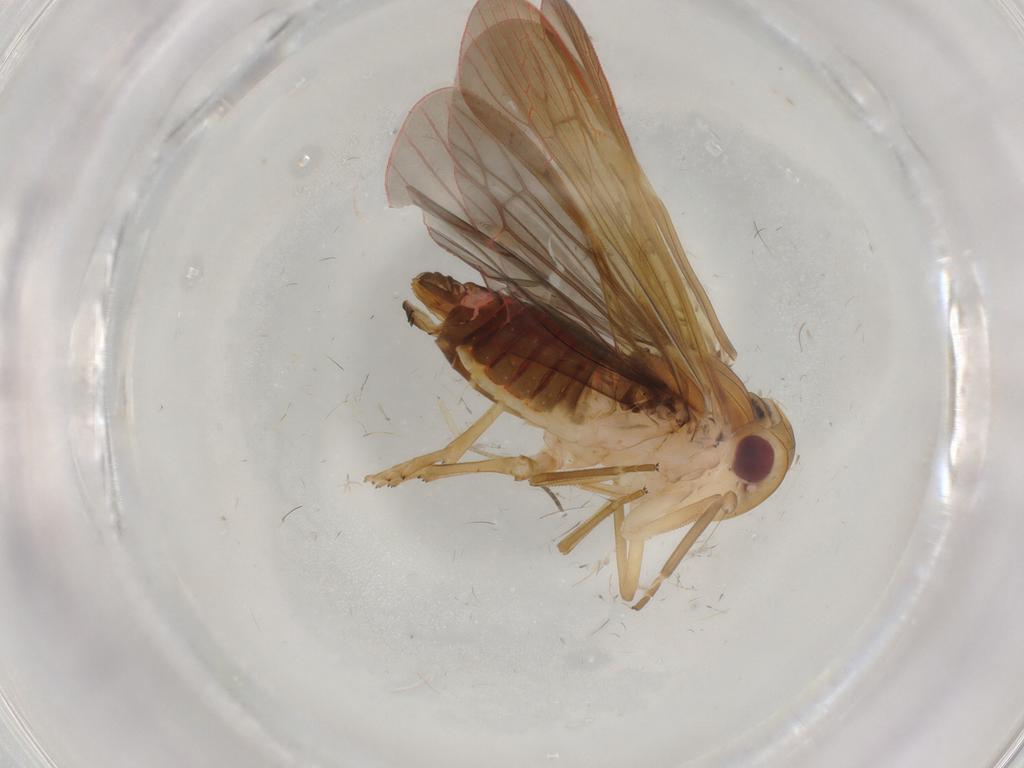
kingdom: Animalia
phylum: Arthropoda
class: Insecta
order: Hemiptera
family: Achilidae
